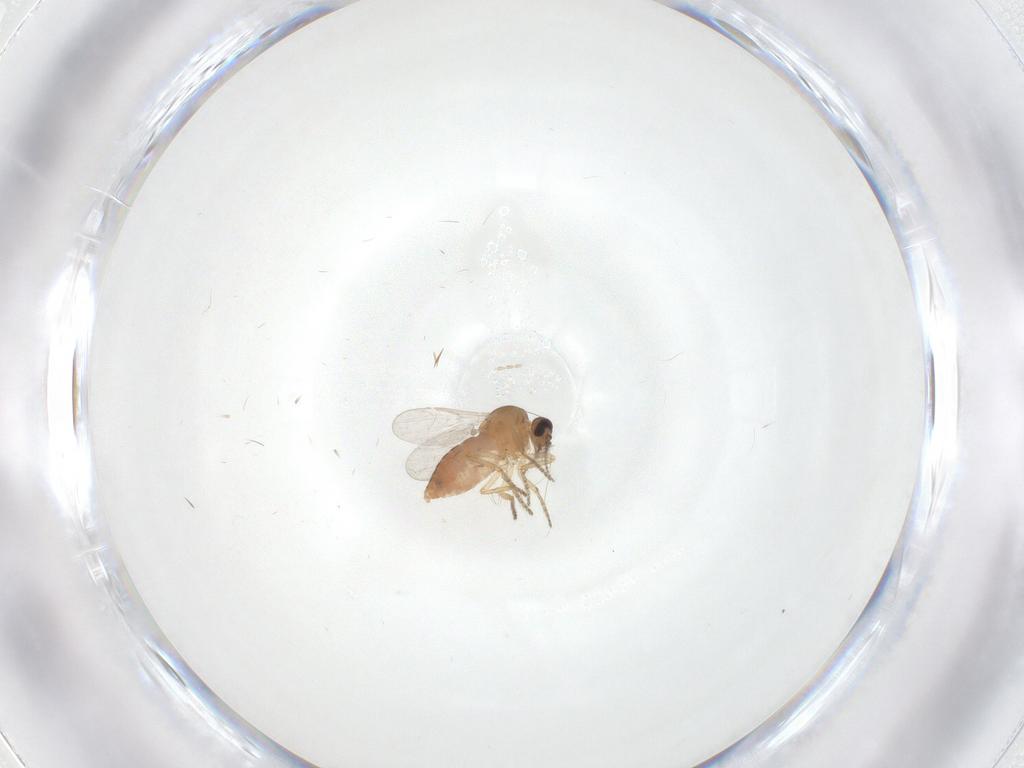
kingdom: Animalia
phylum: Arthropoda
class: Insecta
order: Diptera
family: Ceratopogonidae
